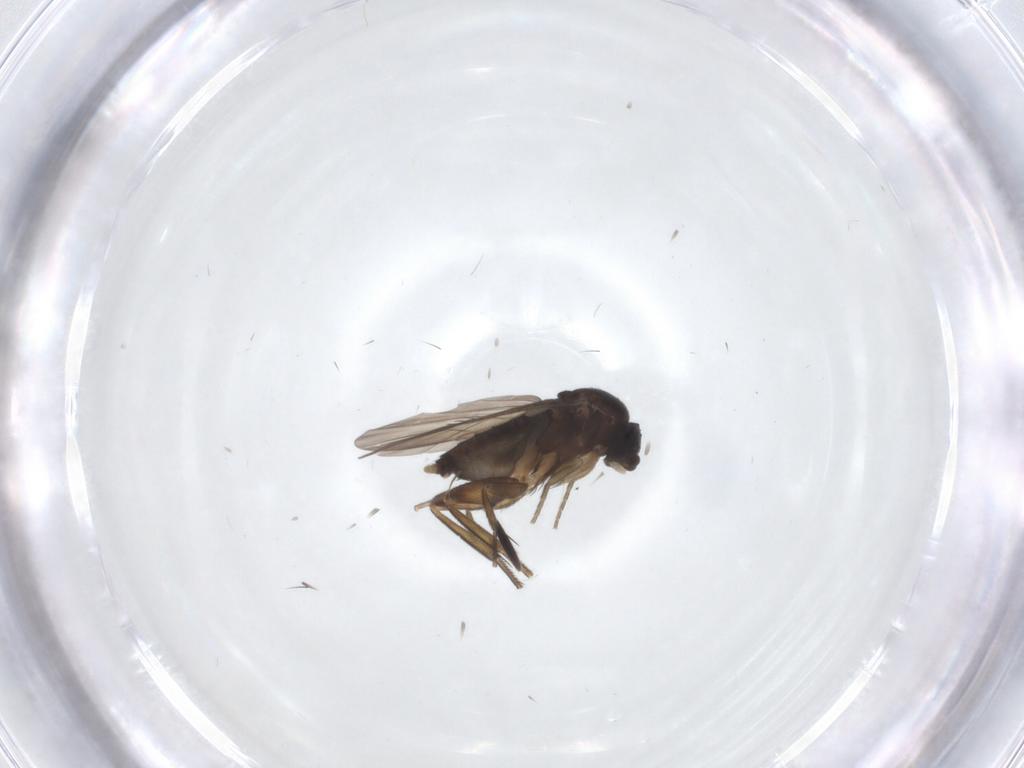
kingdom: Animalia
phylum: Arthropoda
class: Insecta
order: Diptera
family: Phoridae
